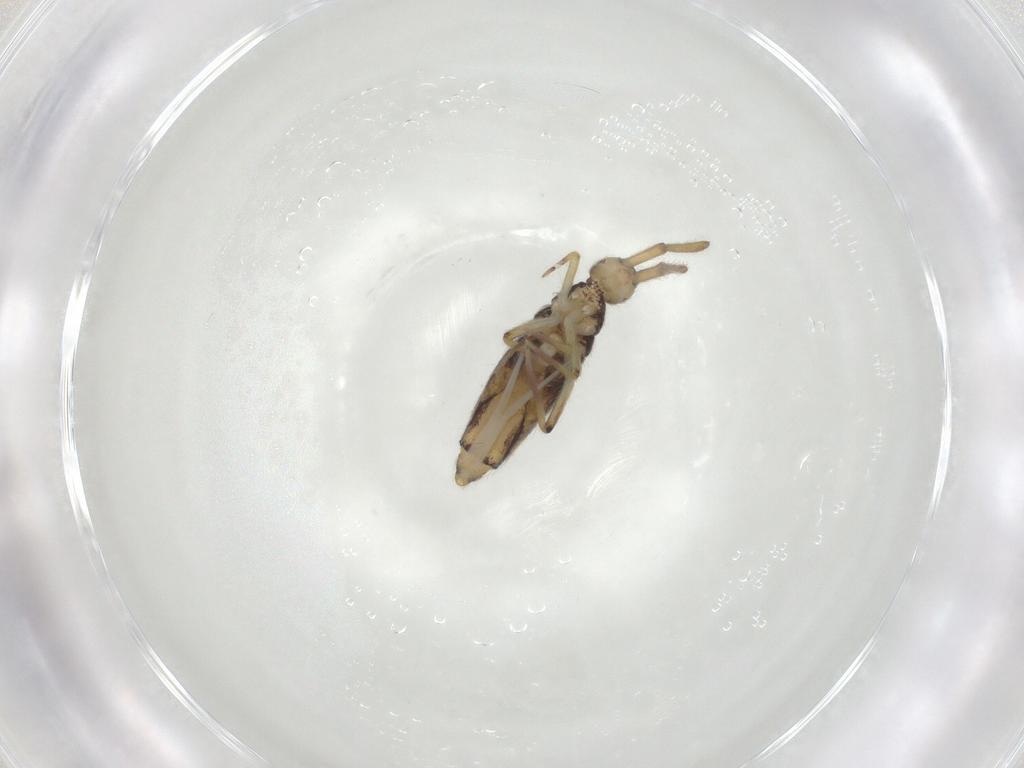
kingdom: Animalia
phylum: Arthropoda
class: Collembola
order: Entomobryomorpha
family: Entomobryidae
